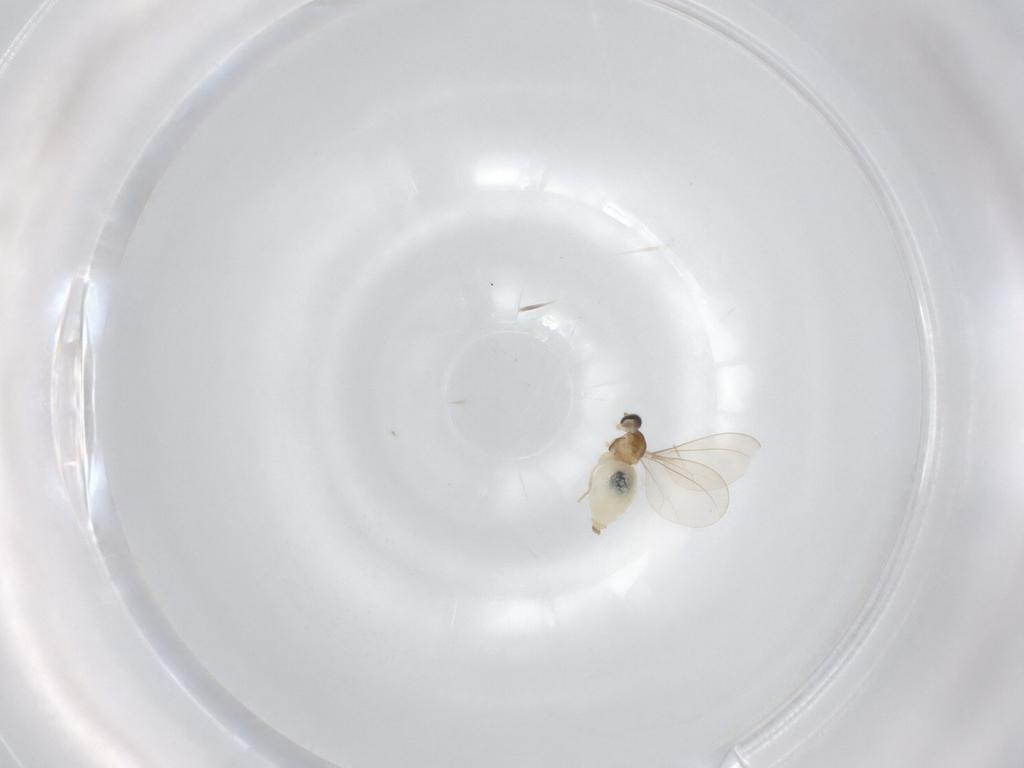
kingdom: Animalia
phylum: Arthropoda
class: Insecta
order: Diptera
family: Cecidomyiidae
